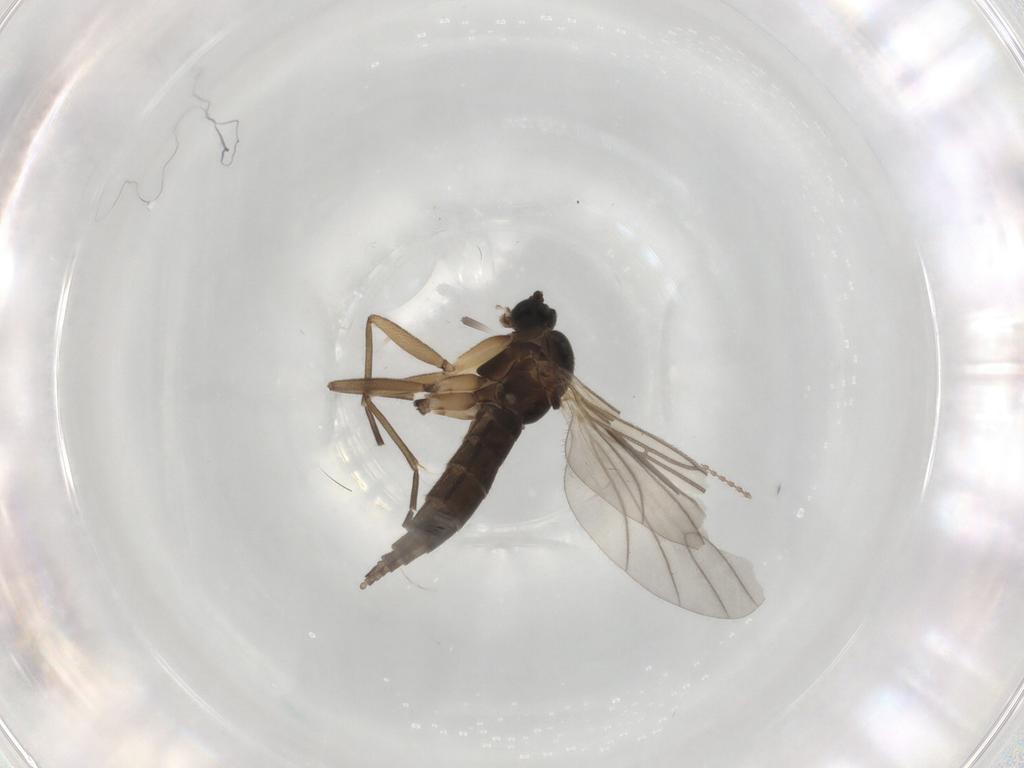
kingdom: Animalia
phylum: Arthropoda
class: Insecta
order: Diptera
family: Sciaridae
